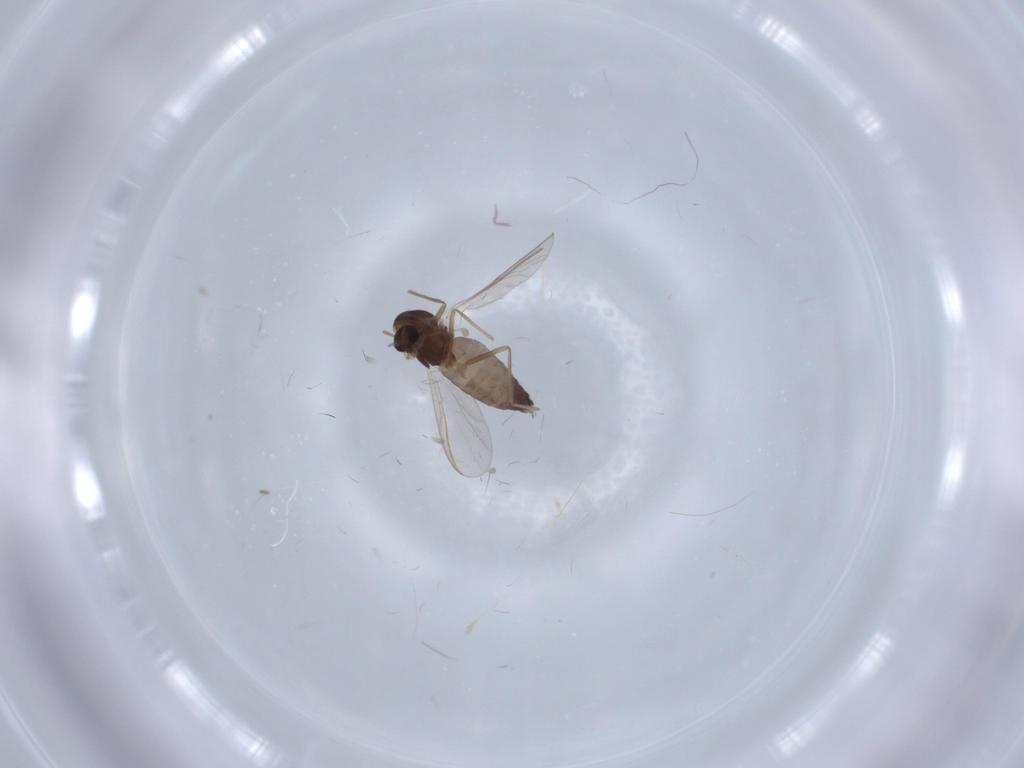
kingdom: Animalia
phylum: Arthropoda
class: Insecta
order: Diptera
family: Chironomidae
